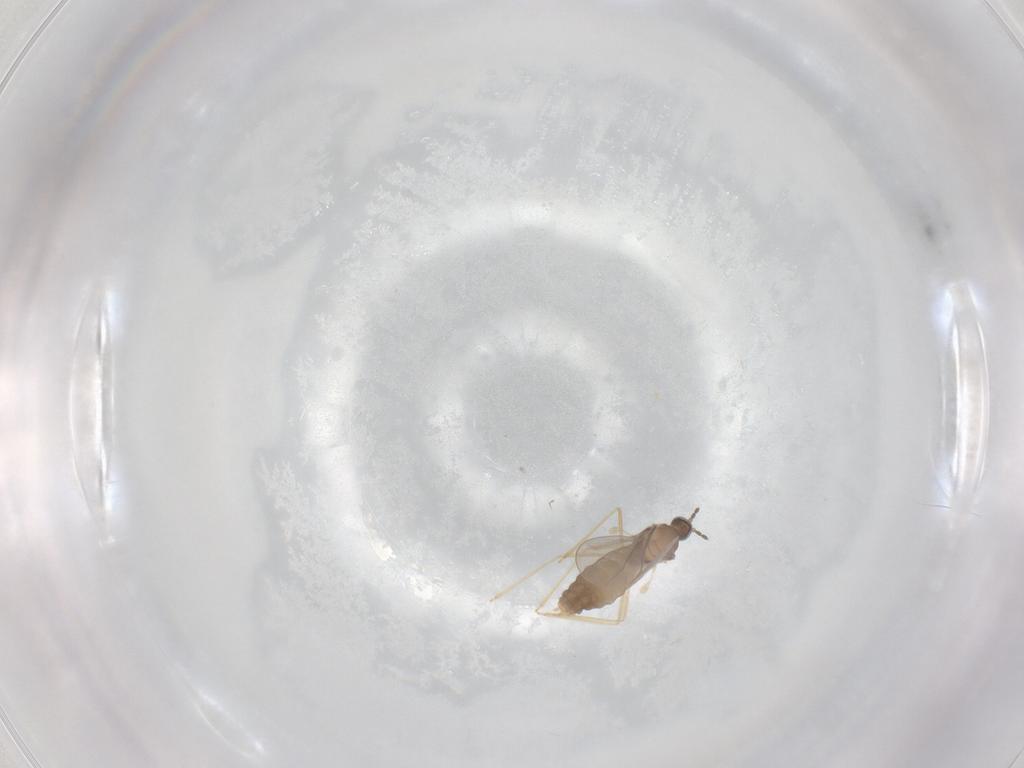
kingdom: Animalia
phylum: Arthropoda
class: Insecta
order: Diptera
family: Cecidomyiidae
